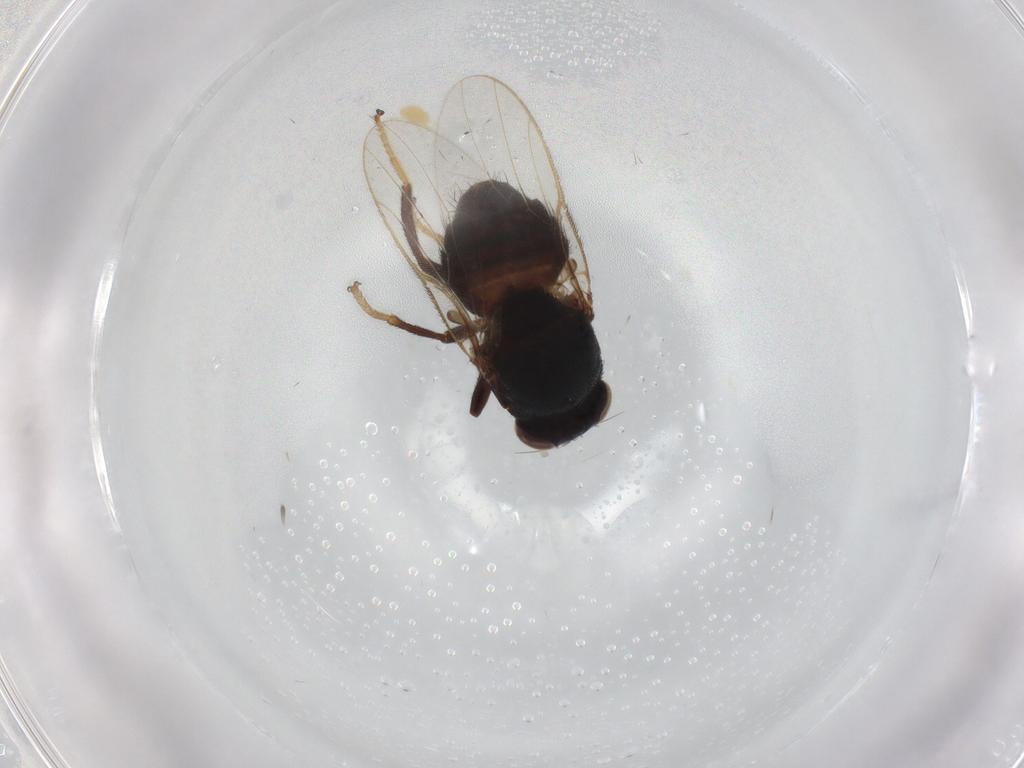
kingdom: Animalia
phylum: Arthropoda
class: Insecta
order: Diptera
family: Chloropidae
